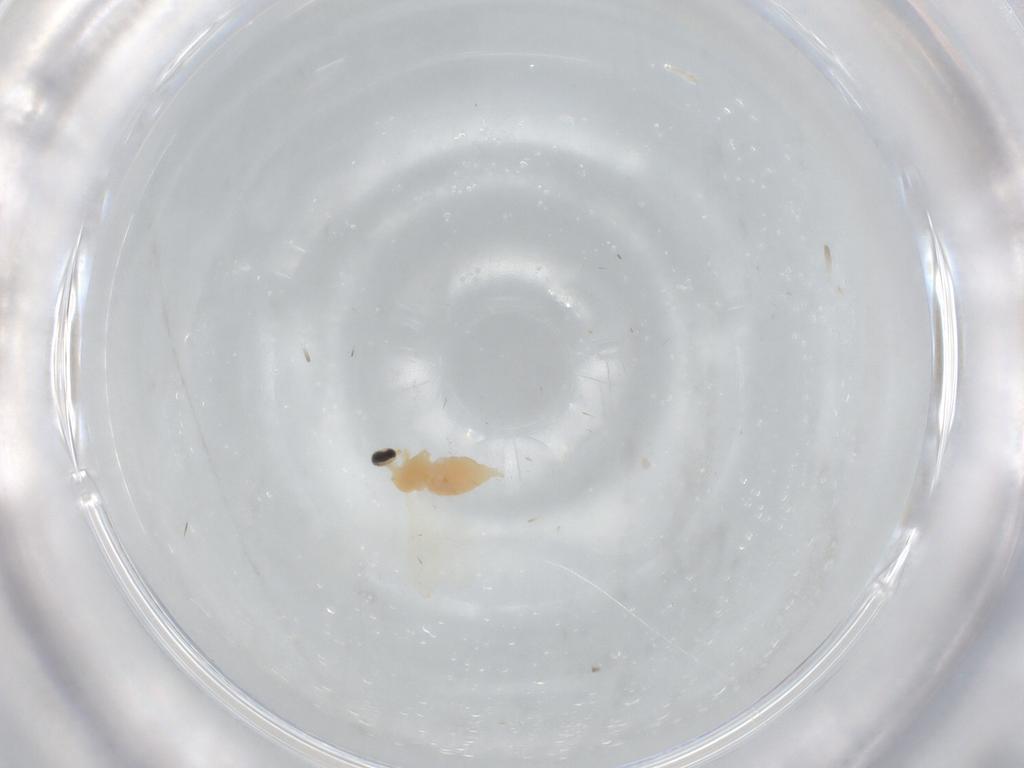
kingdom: Animalia
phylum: Arthropoda
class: Insecta
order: Diptera
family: Cecidomyiidae
